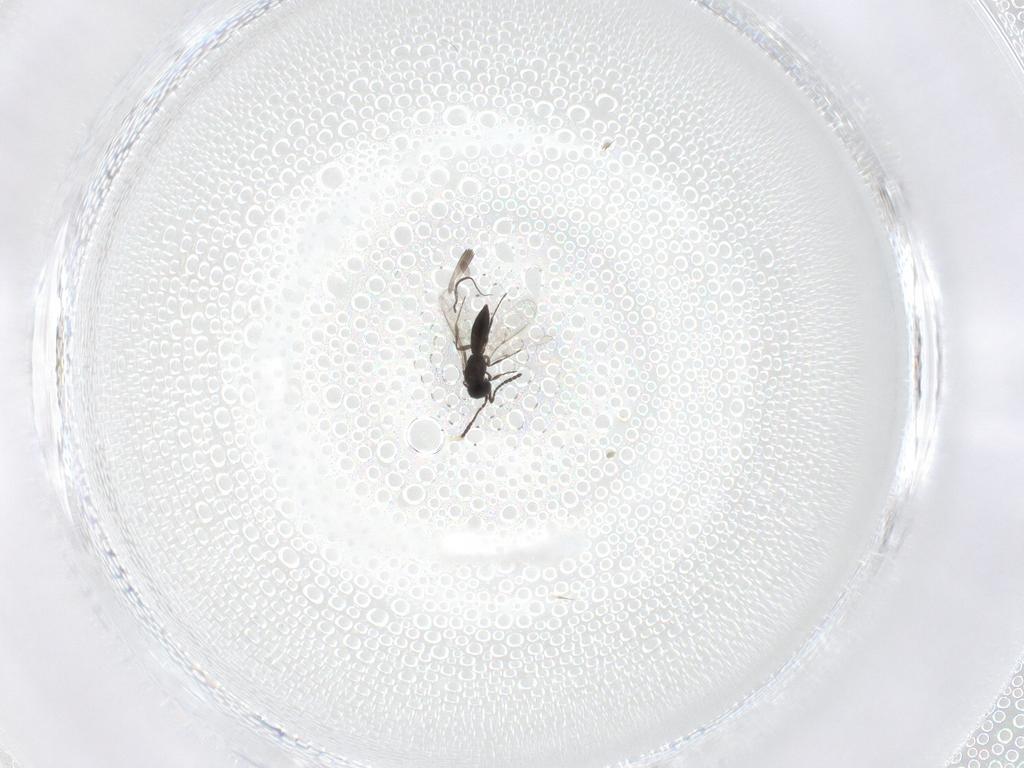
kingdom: Animalia
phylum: Arthropoda
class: Insecta
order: Hymenoptera
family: Scelionidae
